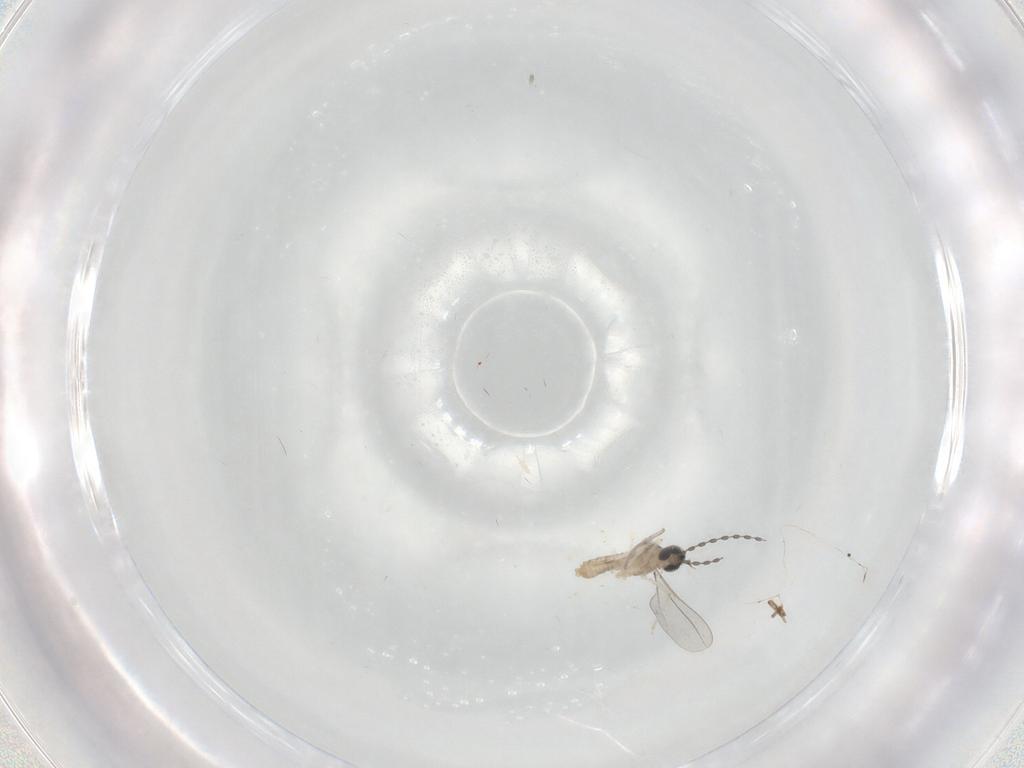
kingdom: Animalia
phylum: Arthropoda
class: Insecta
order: Diptera
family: Cecidomyiidae
